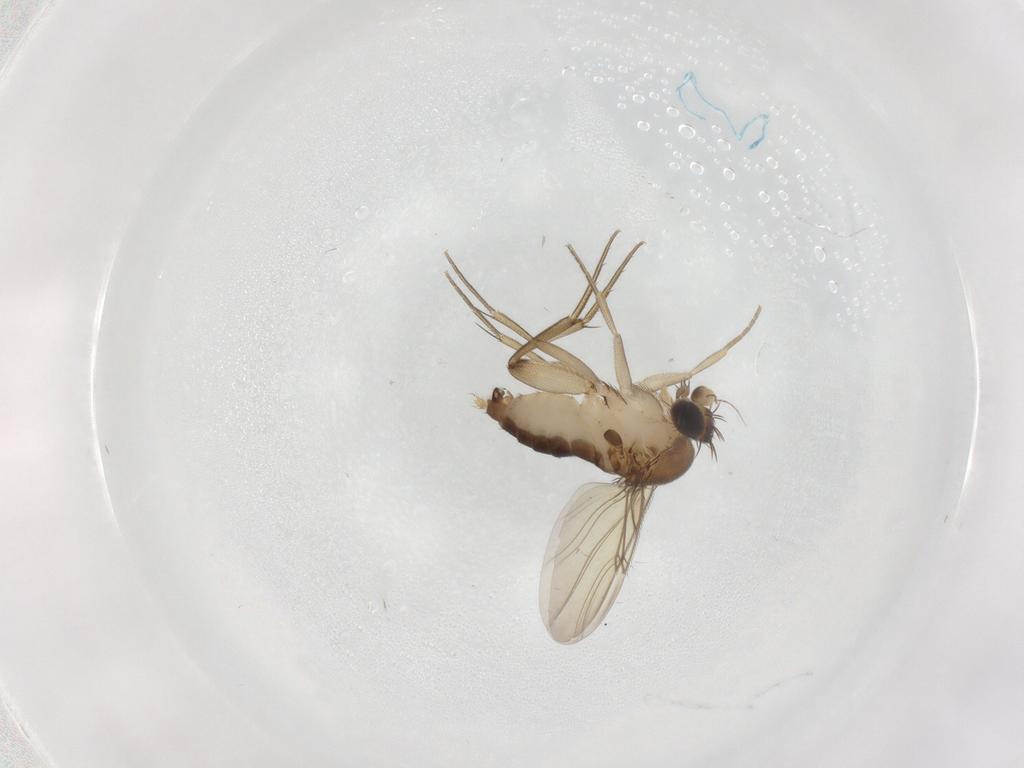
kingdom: Animalia
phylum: Arthropoda
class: Insecta
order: Diptera
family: Phoridae
